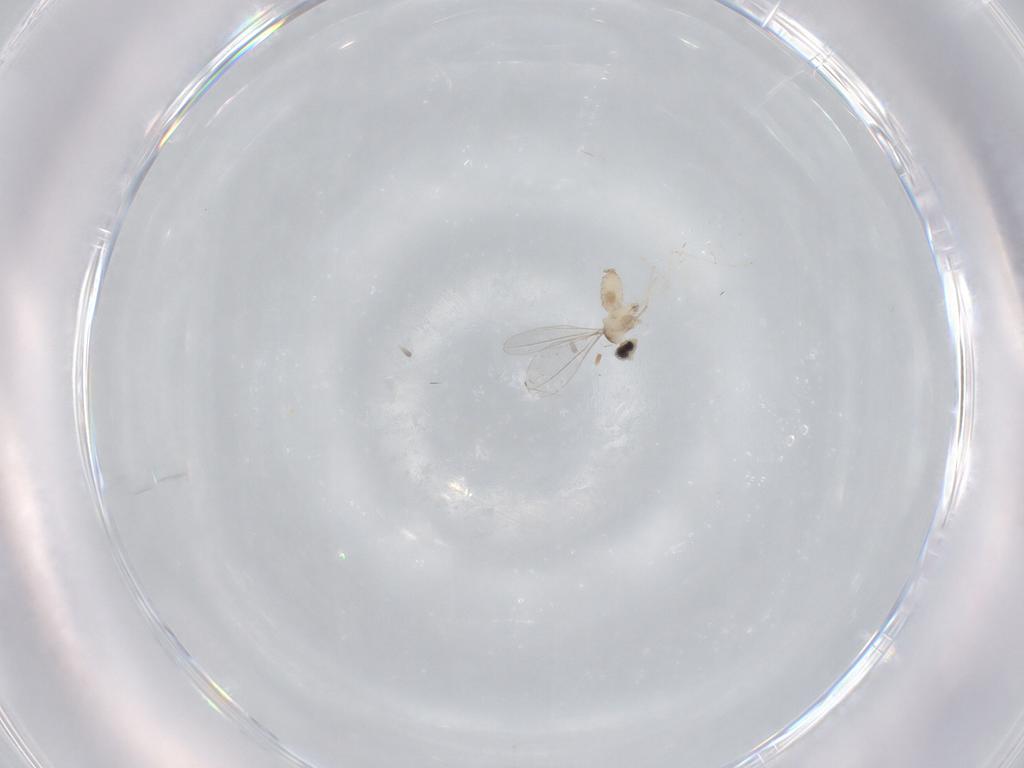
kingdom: Animalia
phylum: Arthropoda
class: Insecta
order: Diptera
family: Cecidomyiidae
